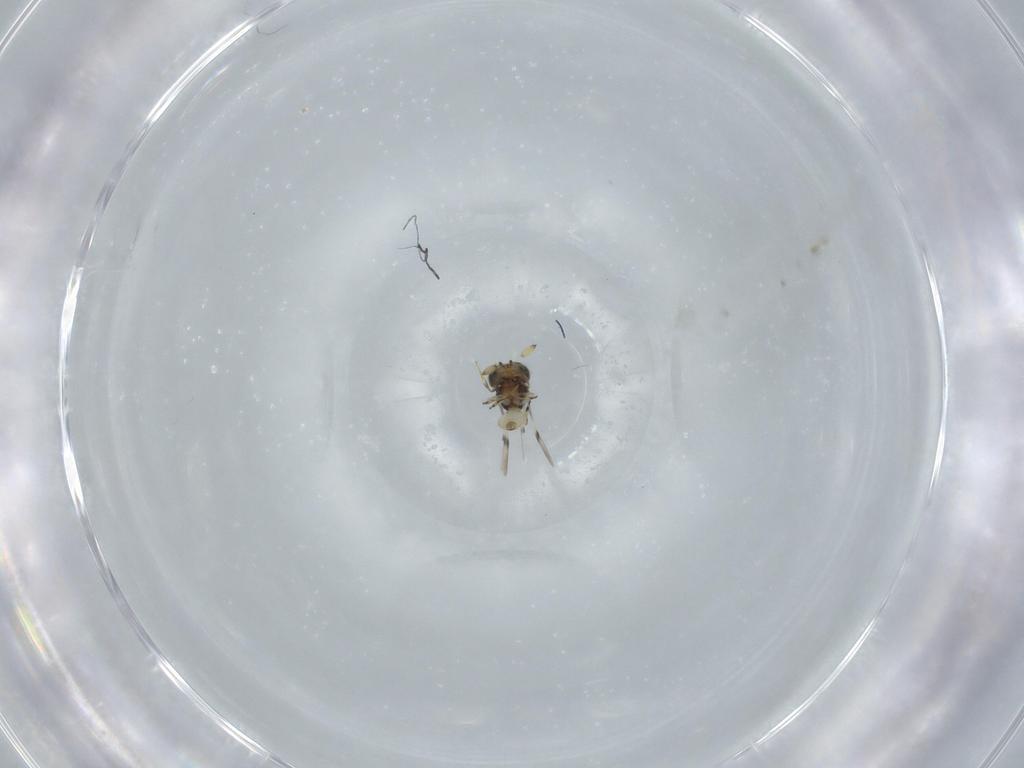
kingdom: Animalia
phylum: Arthropoda
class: Insecta
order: Hymenoptera
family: Scelionidae
